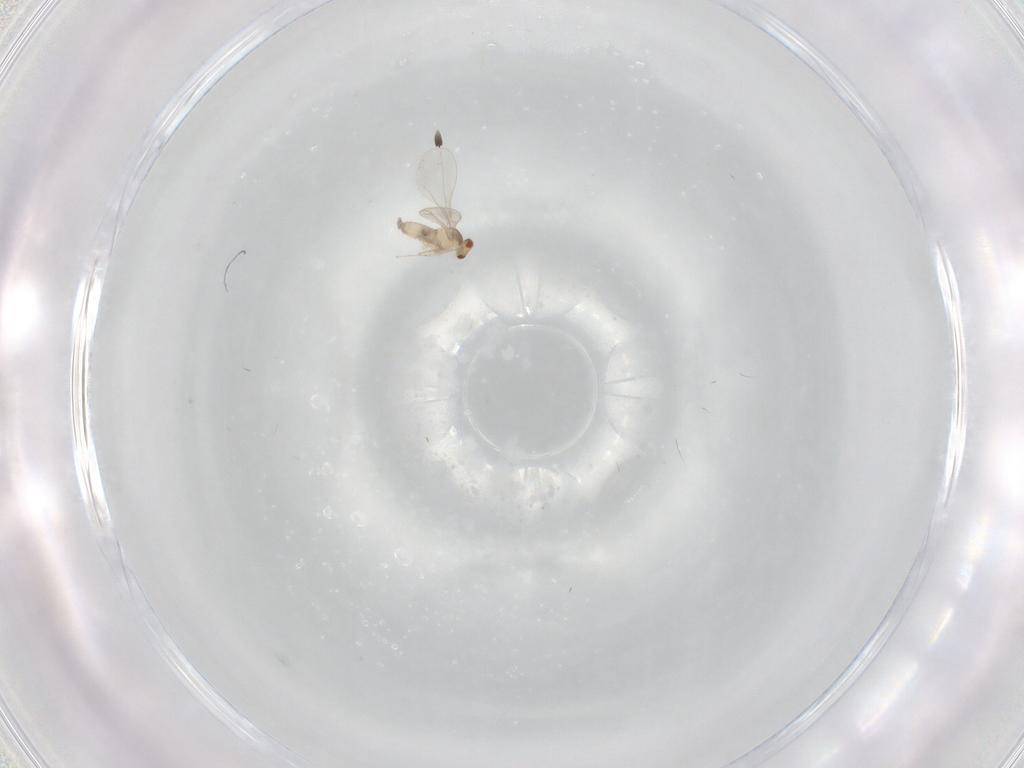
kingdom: Animalia
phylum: Arthropoda
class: Insecta
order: Diptera
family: Cecidomyiidae
